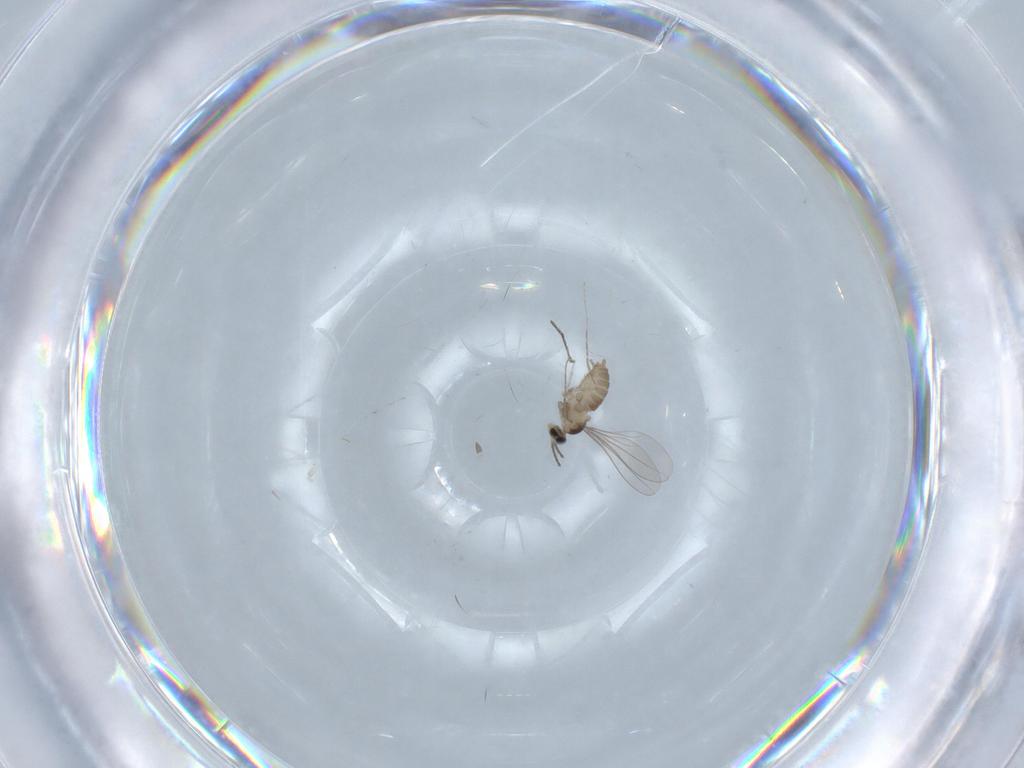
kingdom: Animalia
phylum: Arthropoda
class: Insecta
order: Diptera
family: Cecidomyiidae
